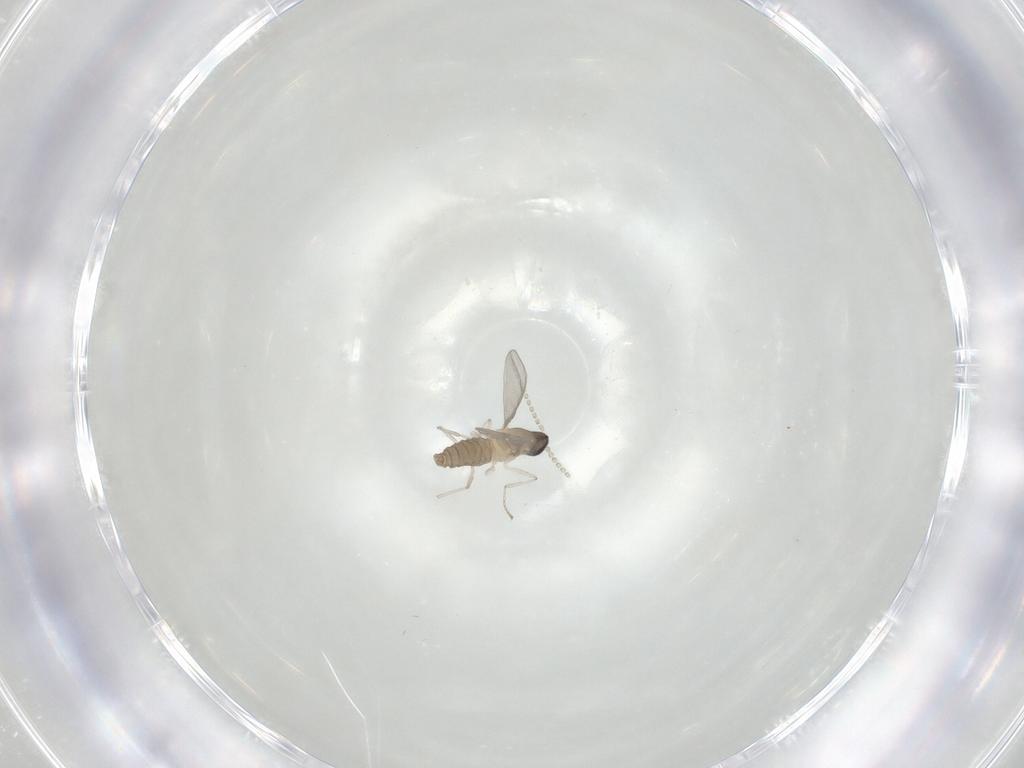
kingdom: Animalia
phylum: Arthropoda
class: Insecta
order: Diptera
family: Cecidomyiidae
